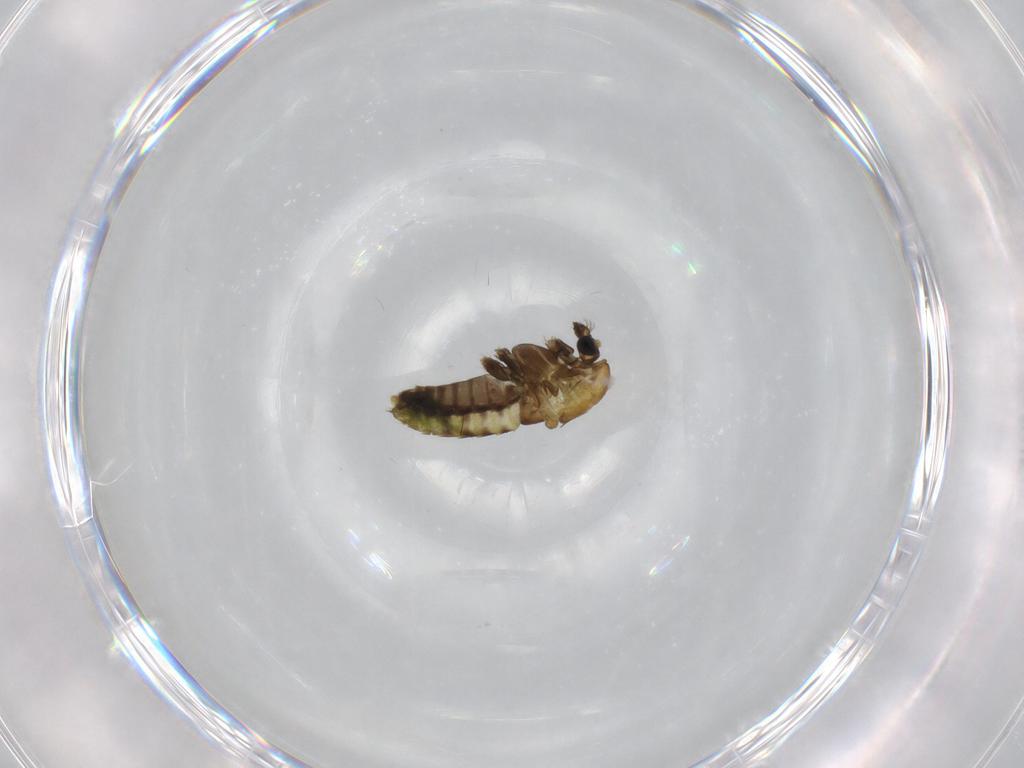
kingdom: Animalia
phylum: Arthropoda
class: Insecta
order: Diptera
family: Chironomidae
